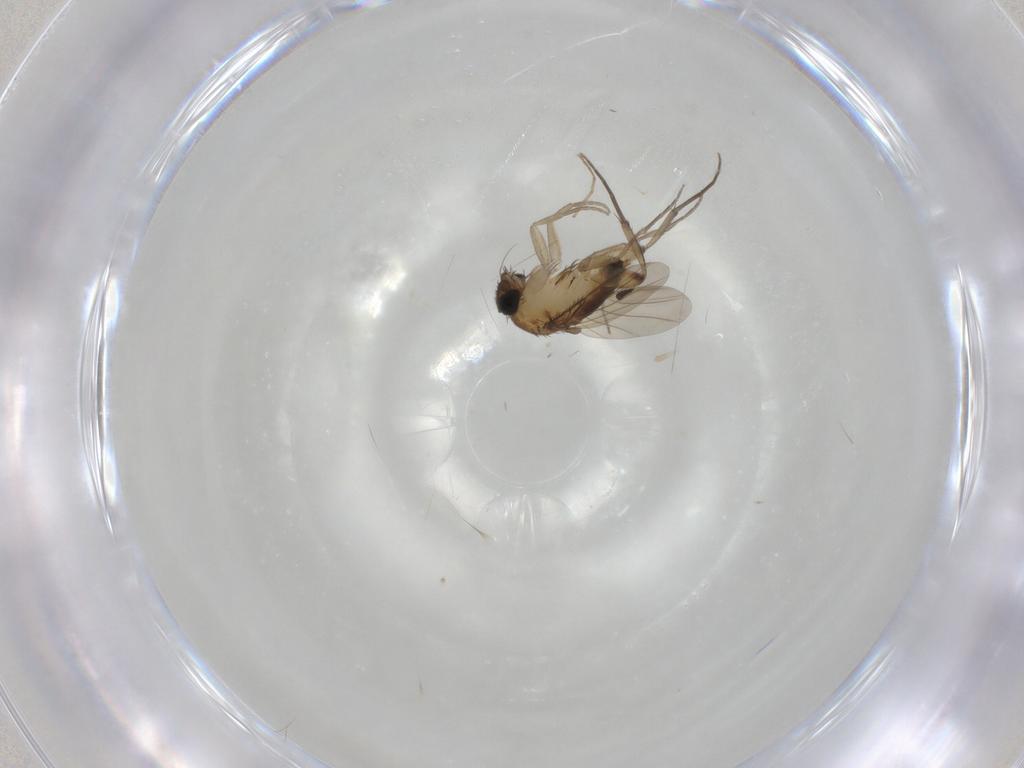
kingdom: Animalia
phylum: Arthropoda
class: Insecta
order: Diptera
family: Phoridae
